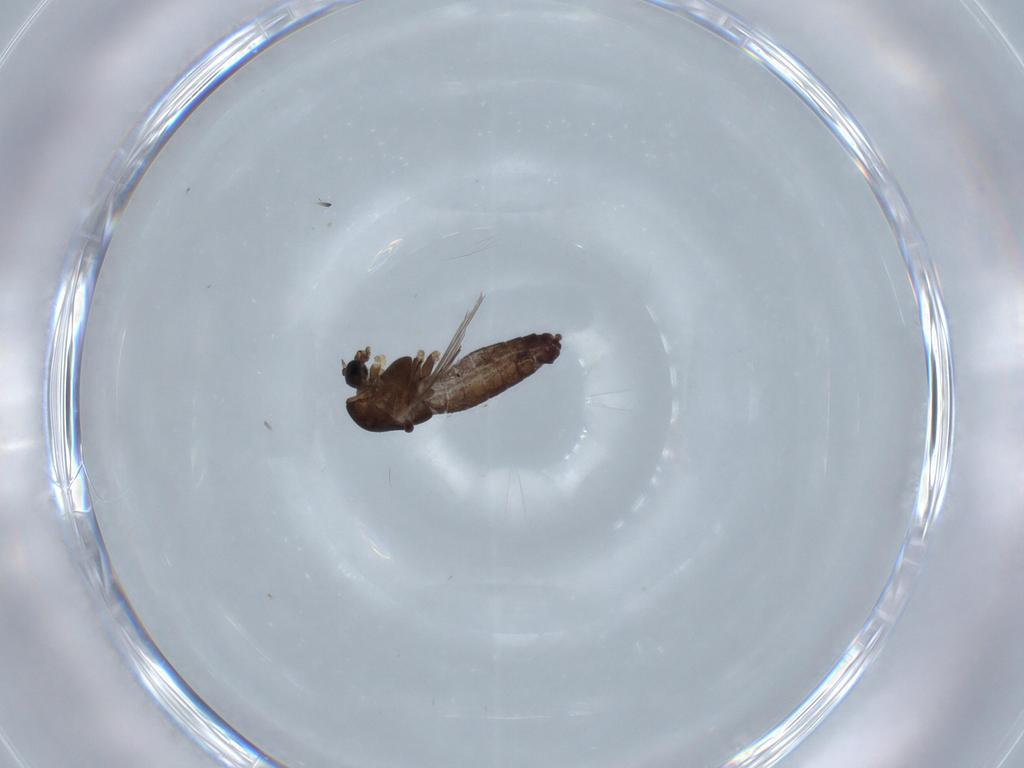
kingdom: Animalia
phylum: Arthropoda
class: Insecta
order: Diptera
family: Chironomidae
